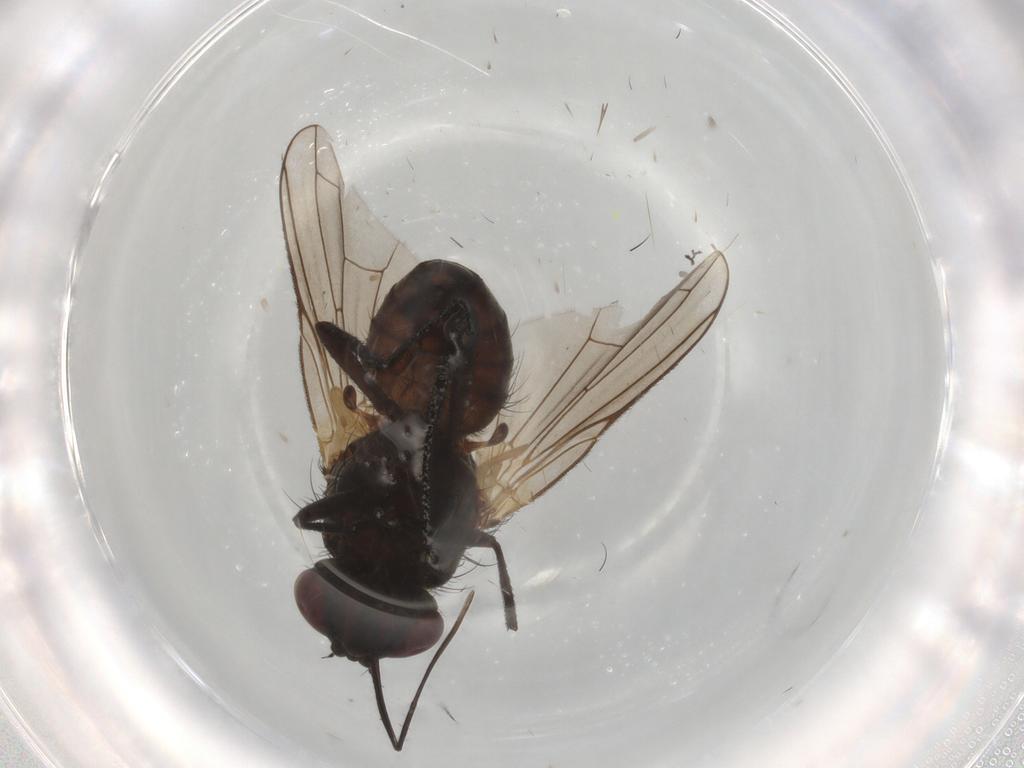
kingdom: Animalia
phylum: Arthropoda
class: Insecta
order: Diptera
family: Tachinidae
